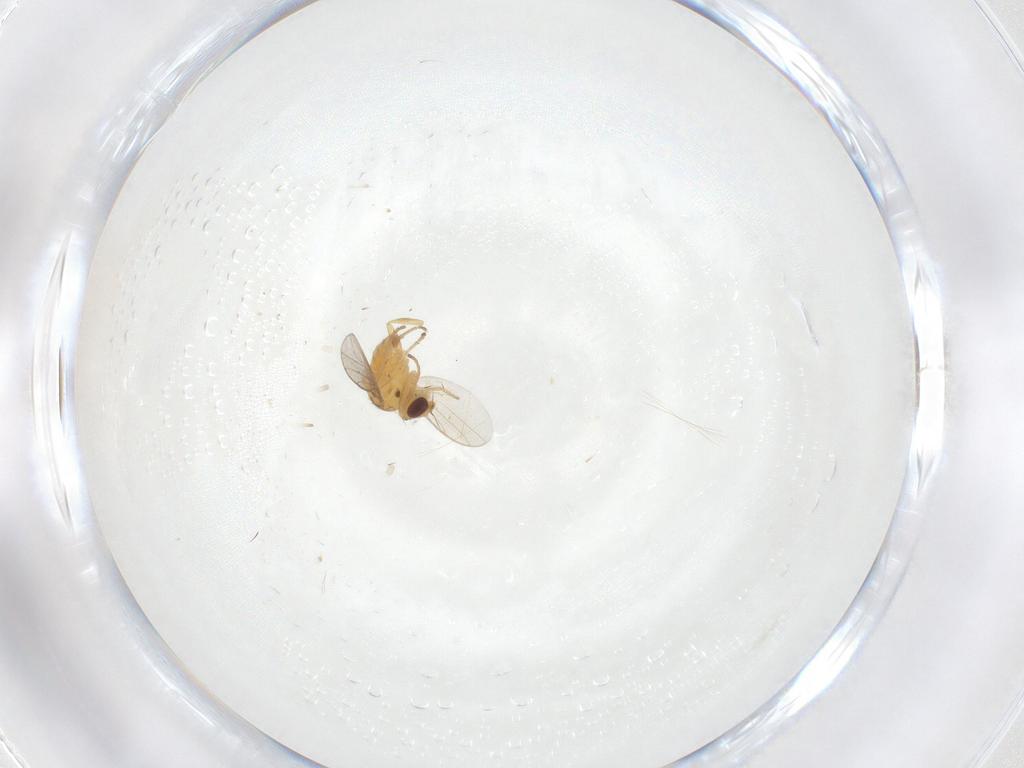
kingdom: Animalia
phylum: Arthropoda
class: Insecta
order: Diptera
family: Chloropidae
